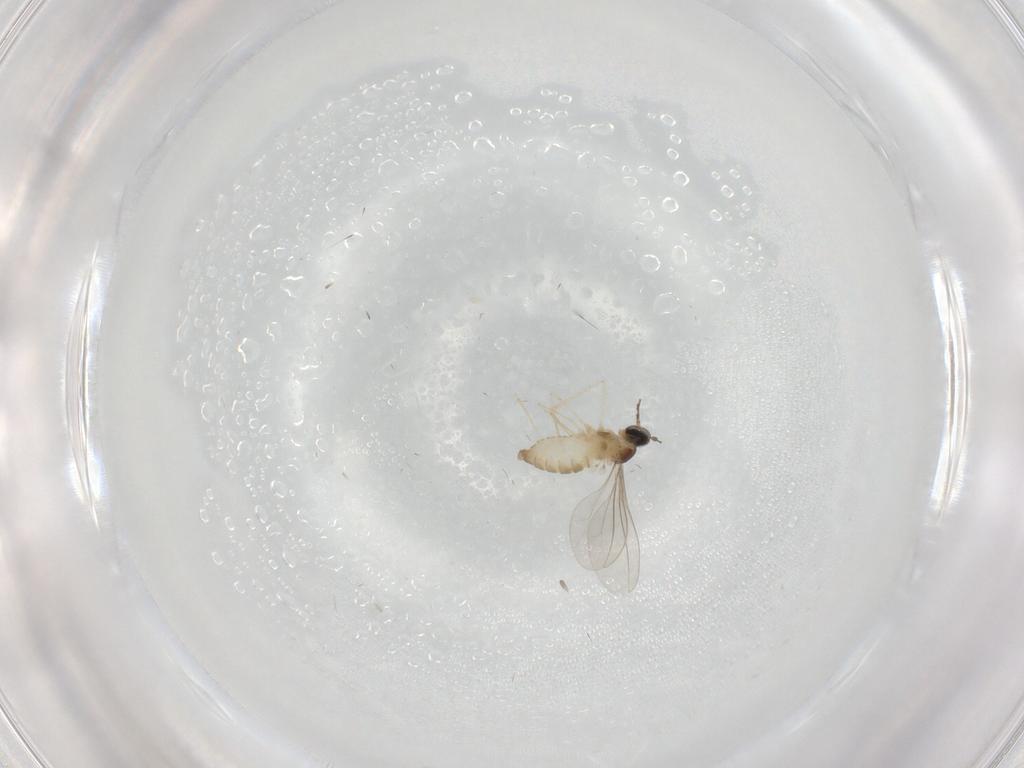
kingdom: Animalia
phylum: Arthropoda
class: Insecta
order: Diptera
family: Cecidomyiidae
